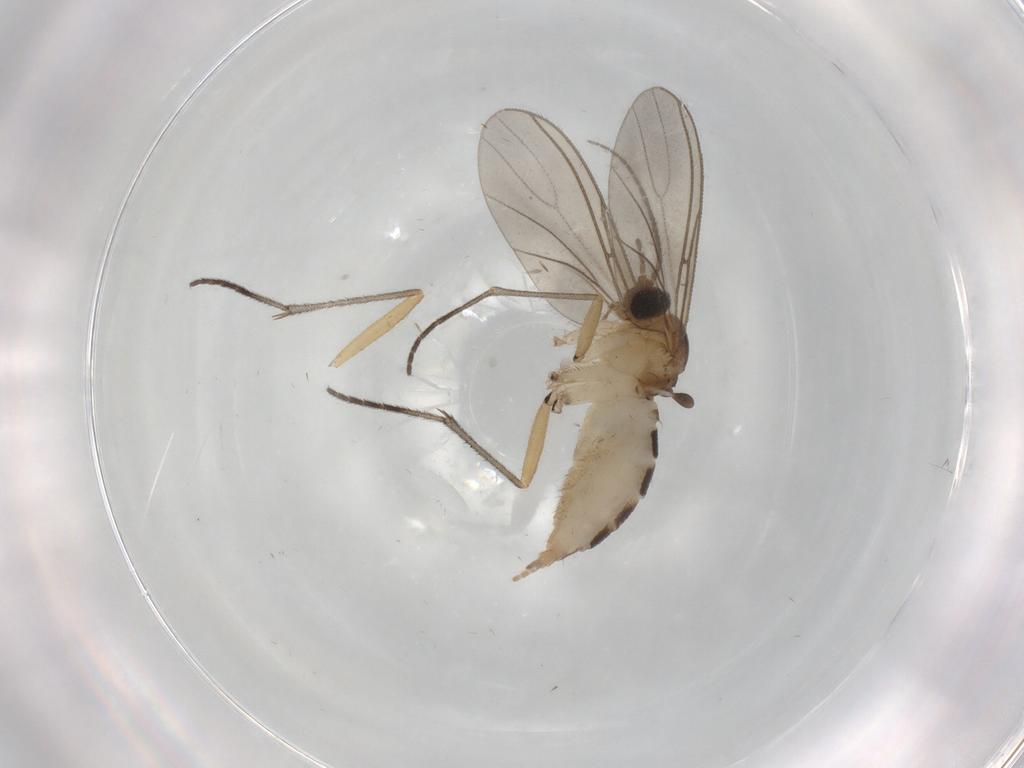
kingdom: Animalia
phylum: Arthropoda
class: Insecta
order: Diptera
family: Sciaridae
